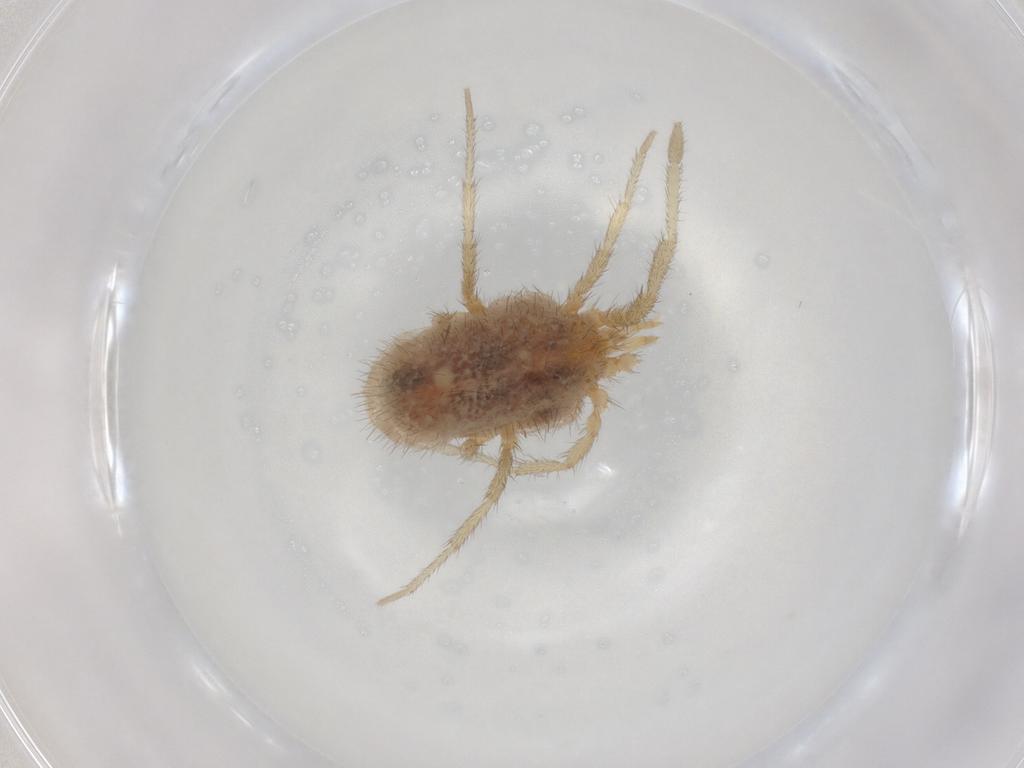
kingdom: Animalia
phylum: Arthropoda
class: Arachnida
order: Trombidiformes
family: Erythraeidae
